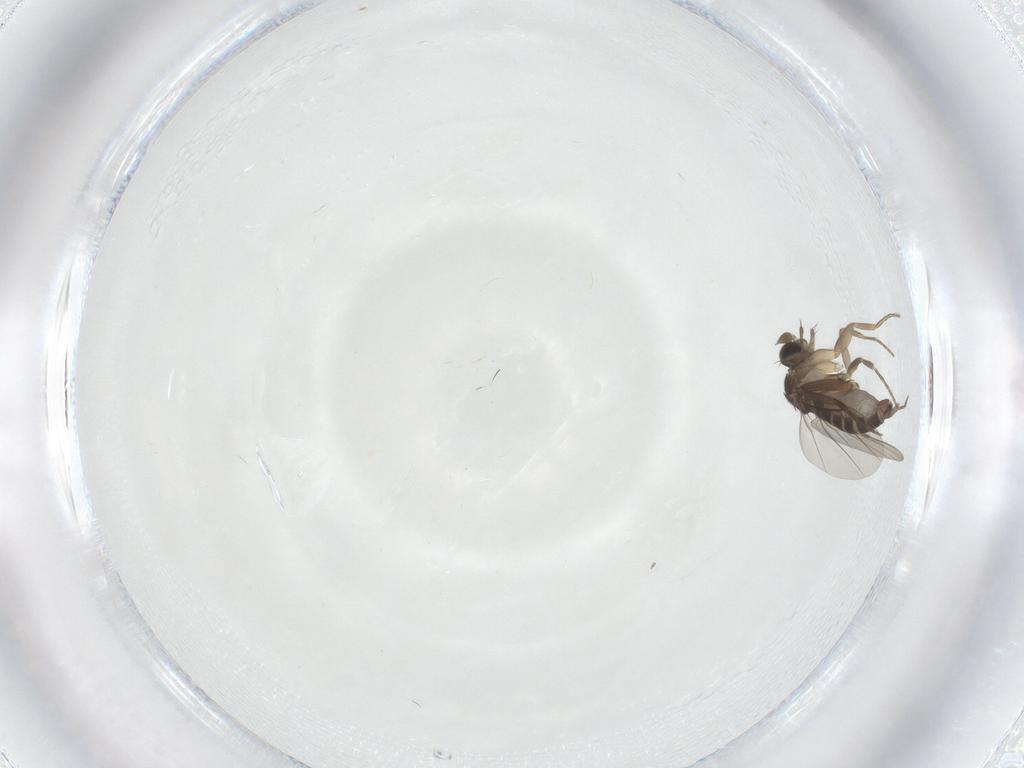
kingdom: Animalia
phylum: Arthropoda
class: Insecta
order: Diptera
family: Phoridae
